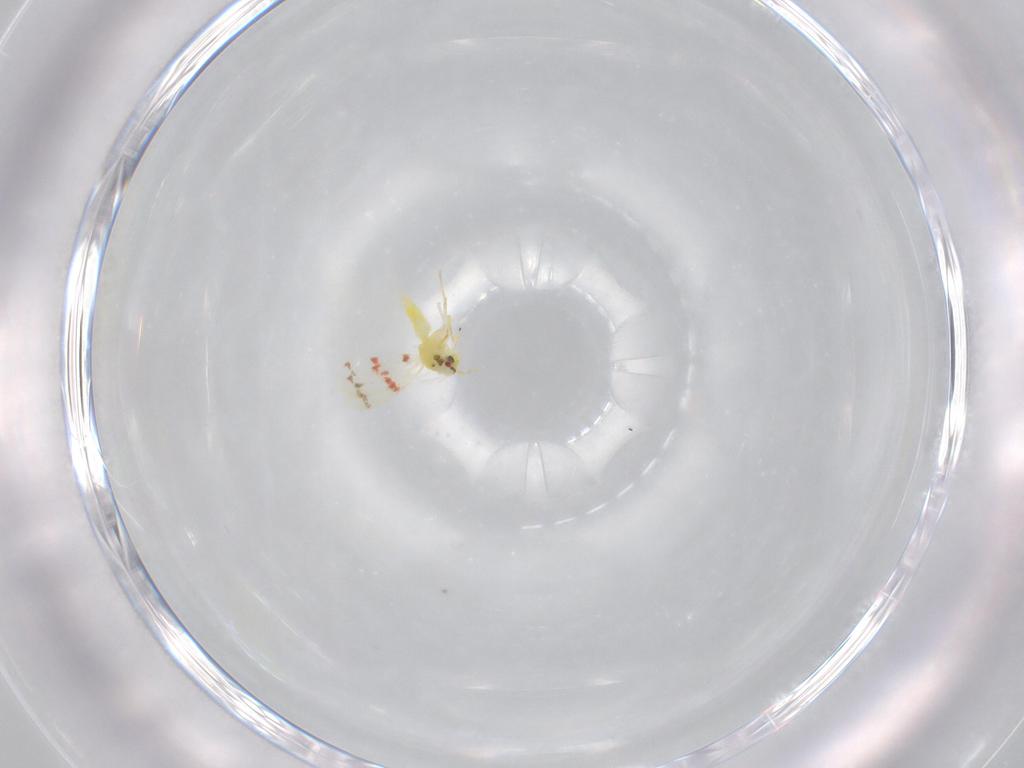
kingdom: Animalia
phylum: Arthropoda
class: Insecta
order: Hemiptera
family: Aleyrodidae
